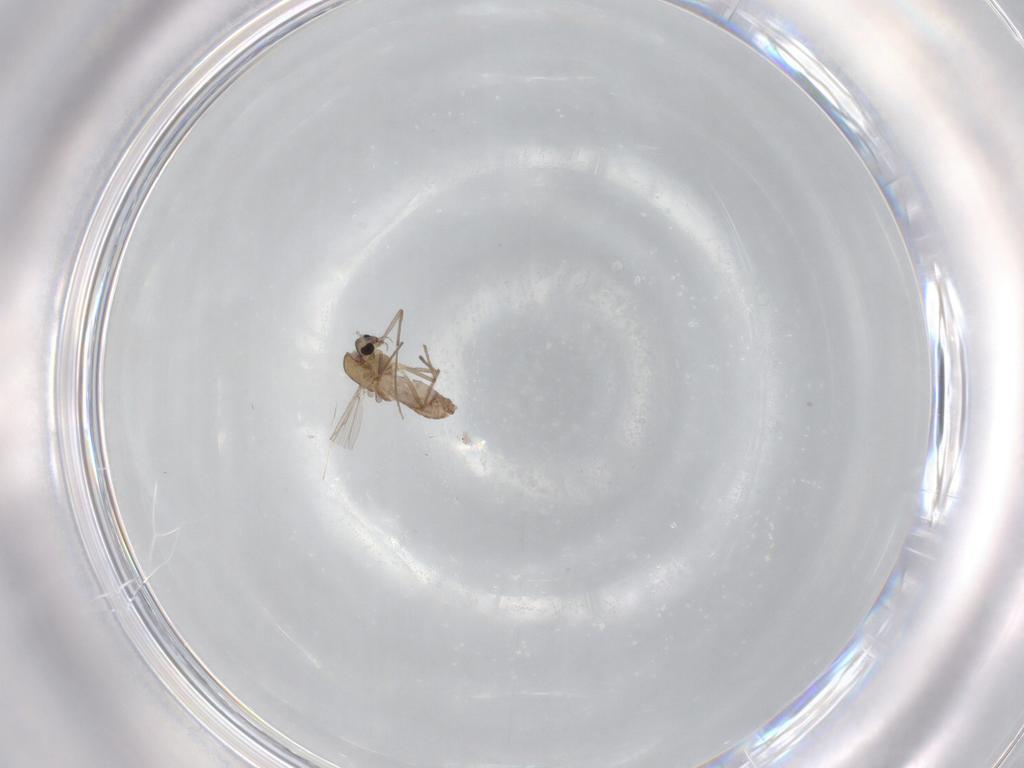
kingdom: Animalia
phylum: Arthropoda
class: Insecta
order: Diptera
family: Chironomidae
